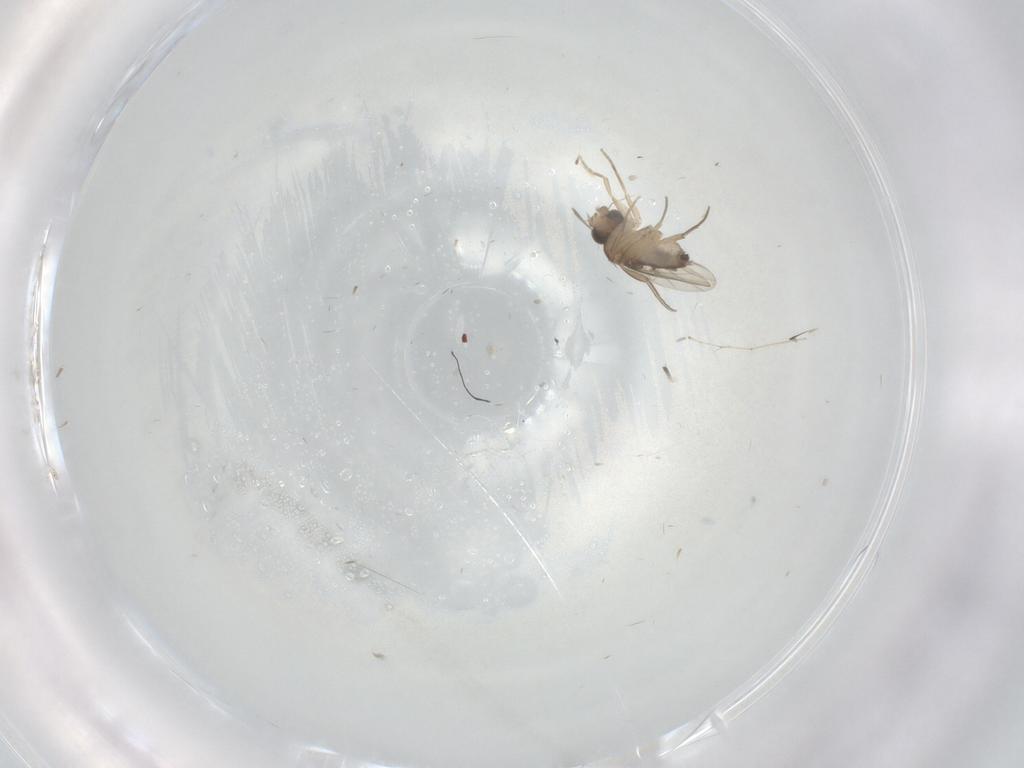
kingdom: Animalia
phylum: Arthropoda
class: Insecta
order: Diptera
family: Phoridae
